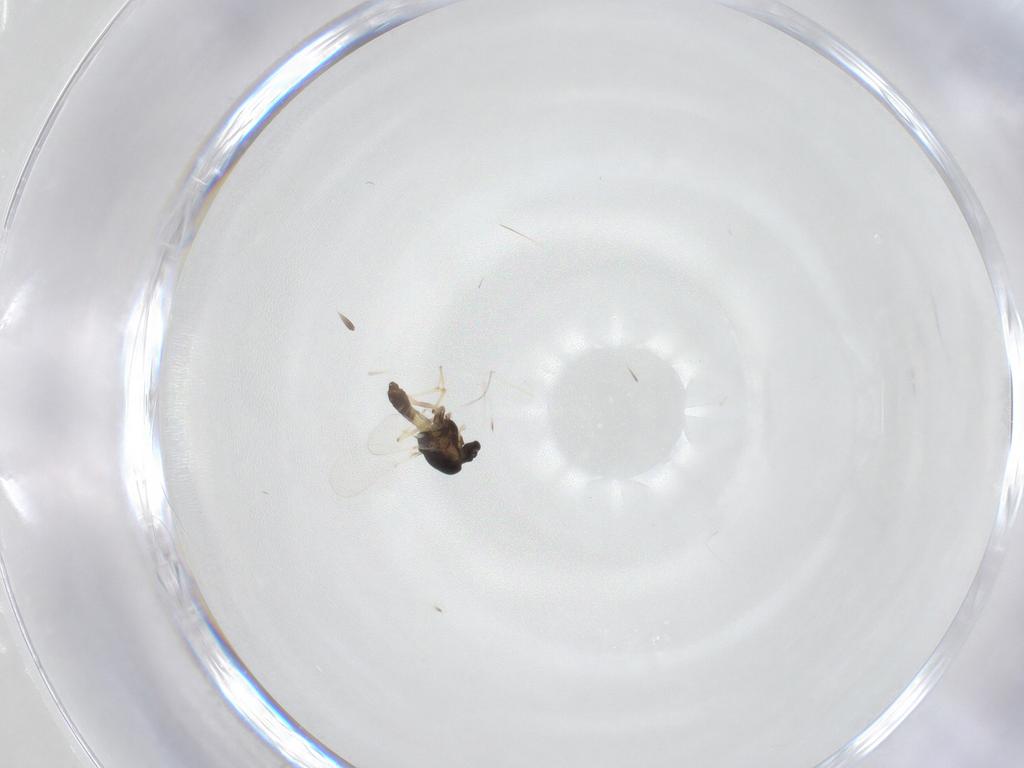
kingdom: Animalia
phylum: Arthropoda
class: Insecta
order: Diptera
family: Chironomidae
